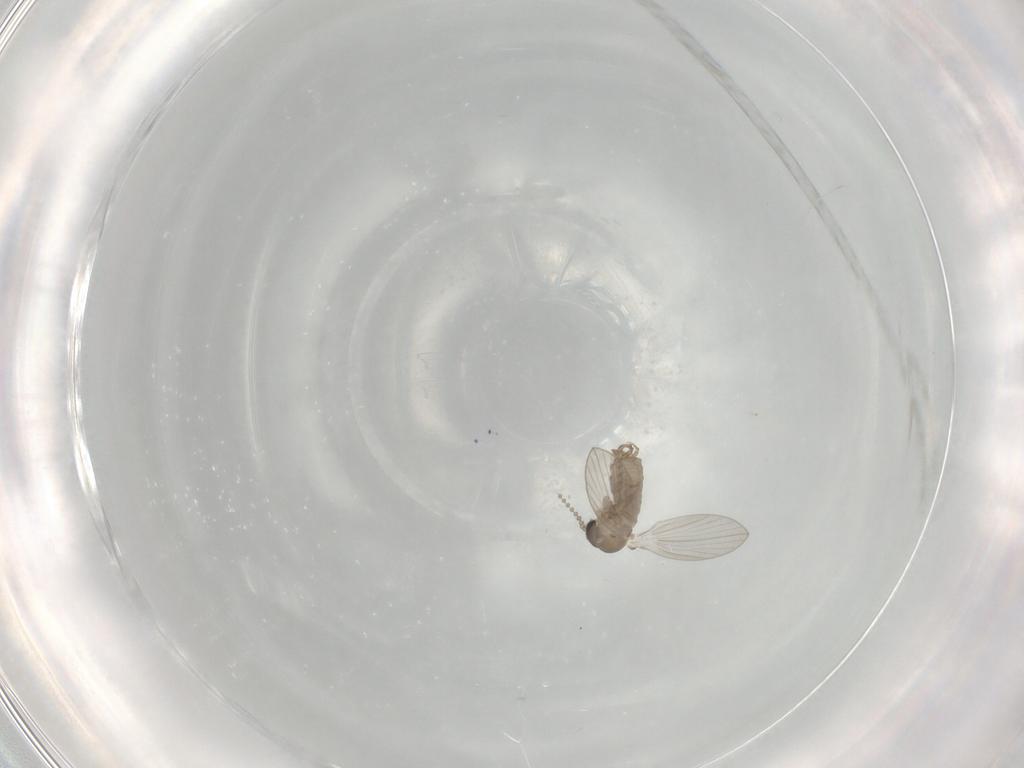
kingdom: Animalia
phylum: Arthropoda
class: Insecta
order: Diptera
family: Psychodidae
